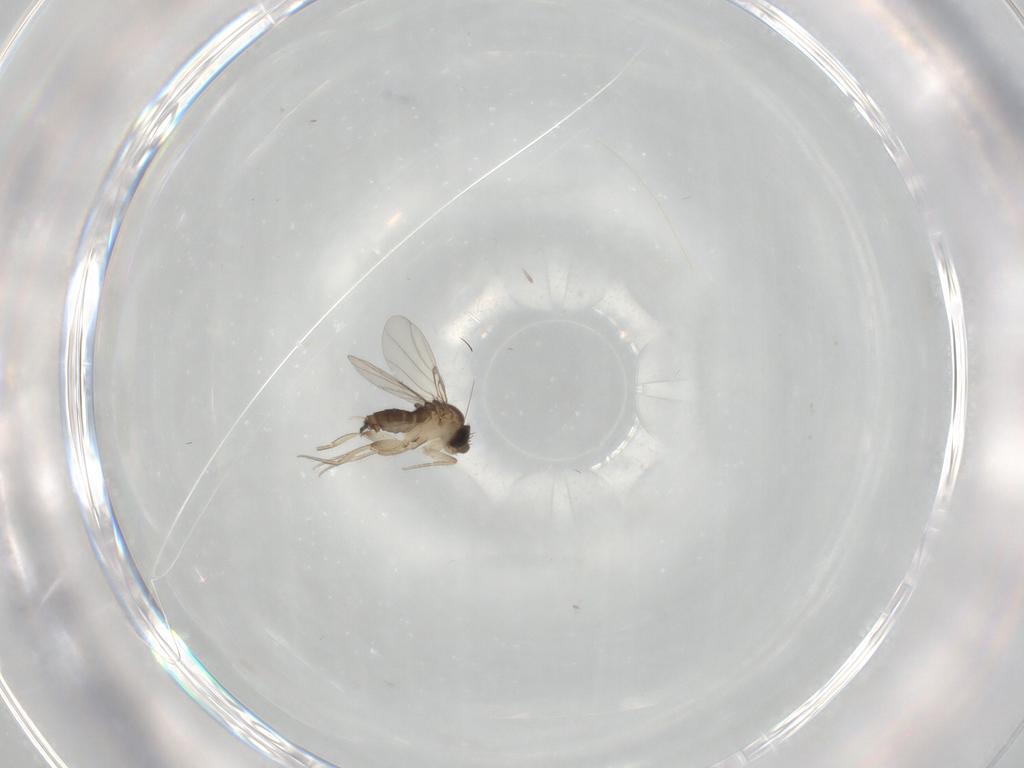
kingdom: Animalia
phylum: Arthropoda
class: Insecta
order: Diptera
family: Phoridae
